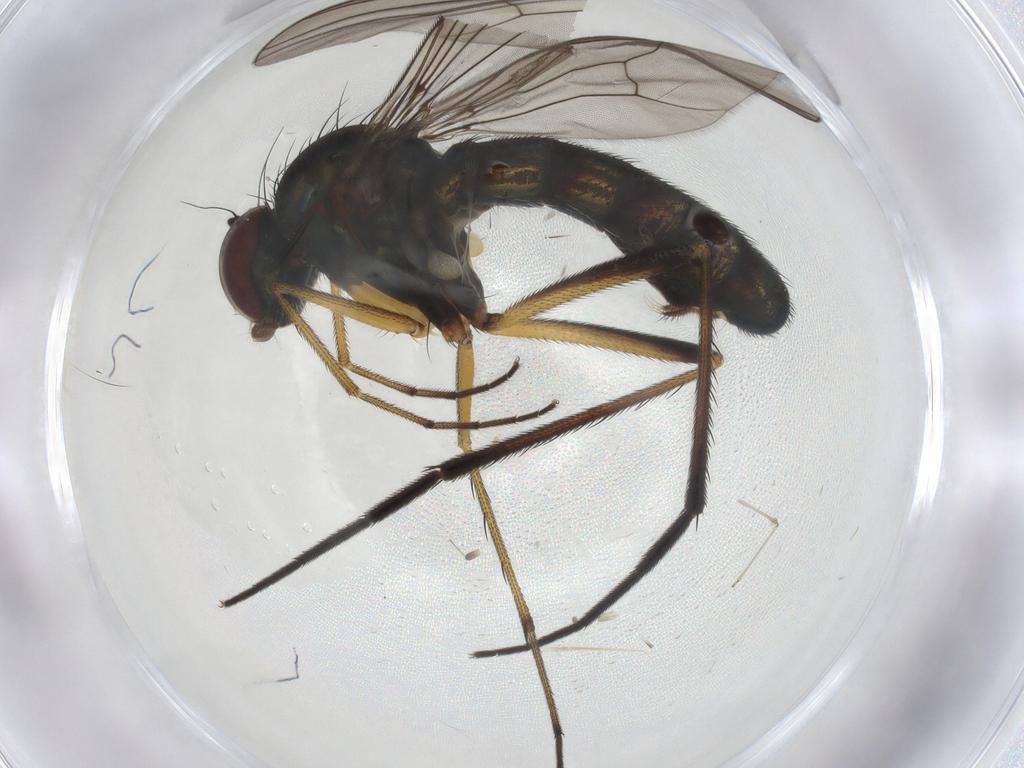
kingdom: Animalia
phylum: Arthropoda
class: Insecta
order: Diptera
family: Dolichopodidae
